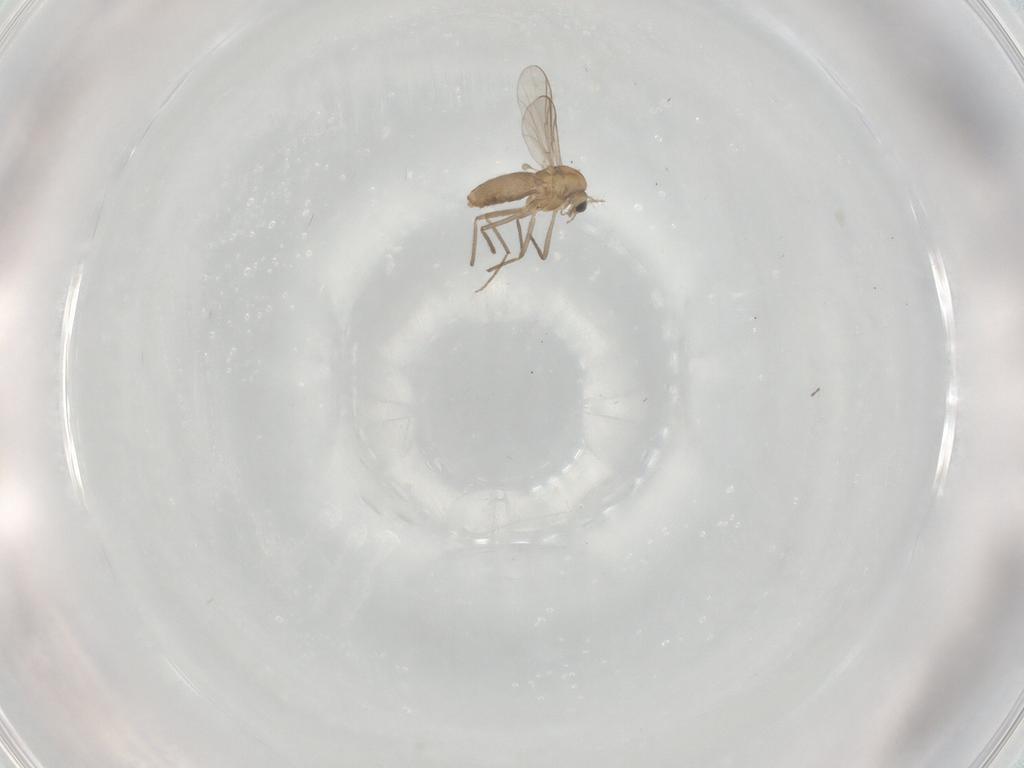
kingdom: Animalia
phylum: Arthropoda
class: Insecta
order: Diptera
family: Chironomidae
